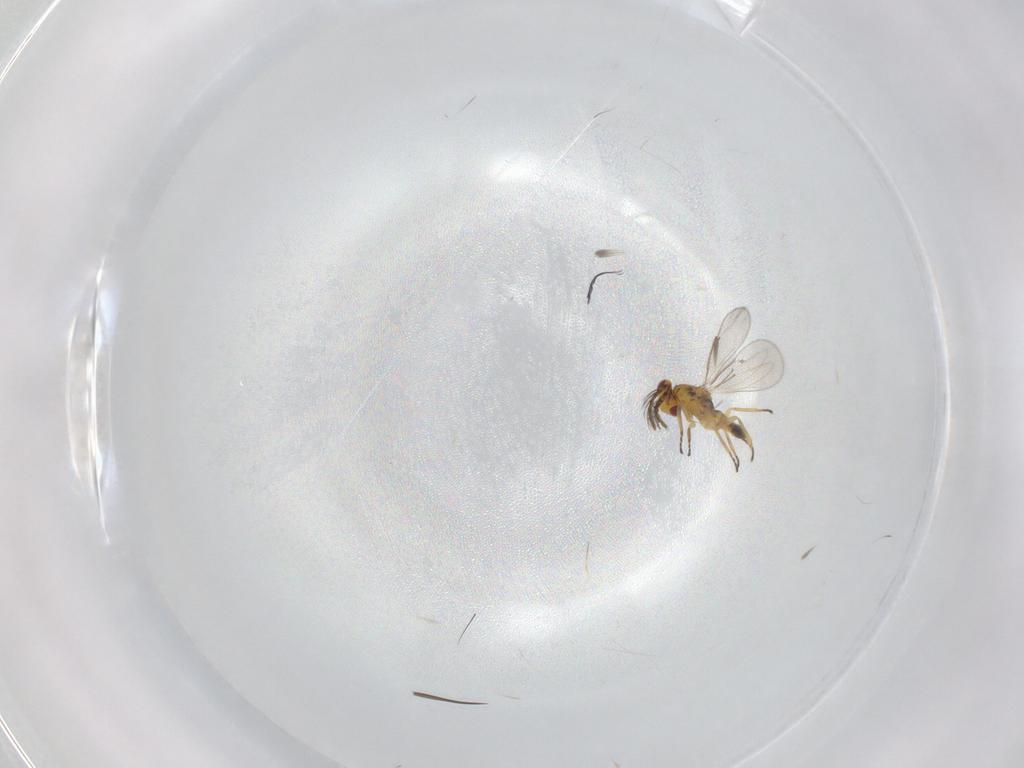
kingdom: Animalia
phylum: Arthropoda
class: Insecta
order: Hymenoptera
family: Eulophidae
